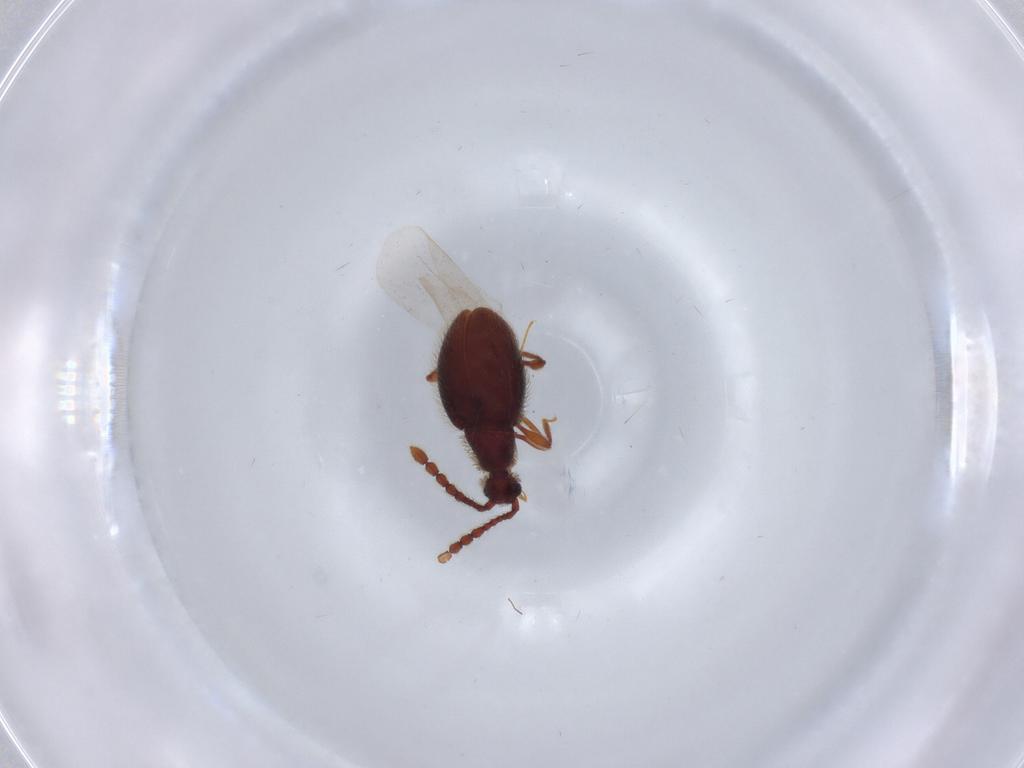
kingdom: Animalia
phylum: Arthropoda
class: Insecta
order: Coleoptera
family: Staphylinidae
